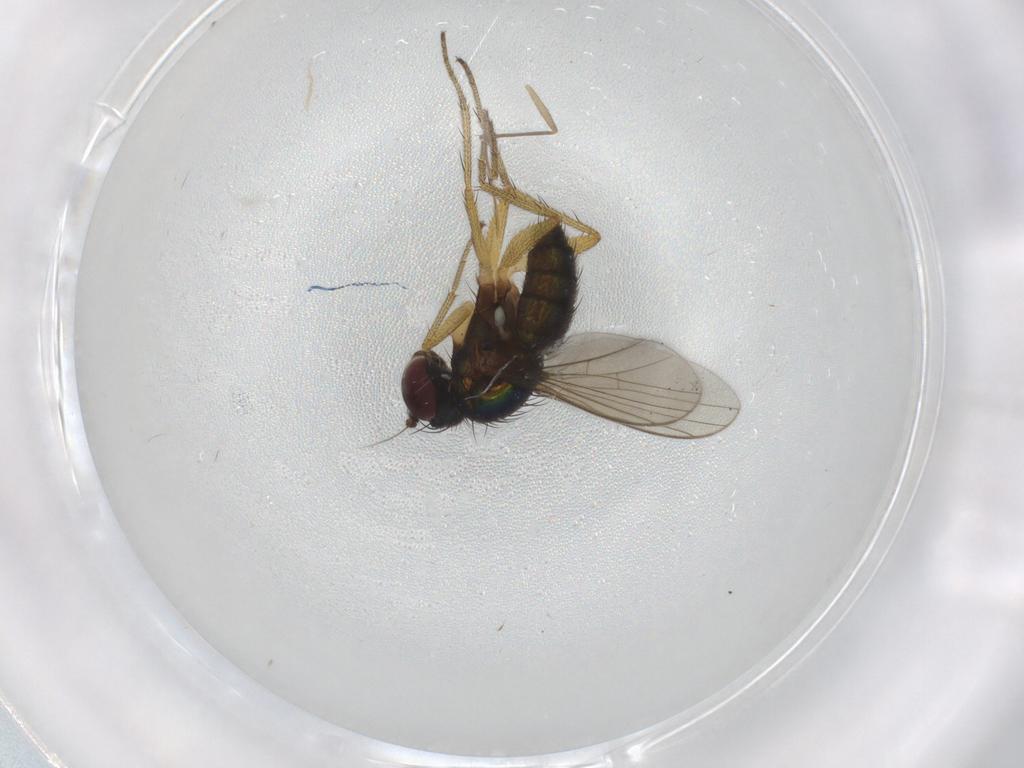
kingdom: Animalia
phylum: Arthropoda
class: Insecta
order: Diptera
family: Chironomidae
